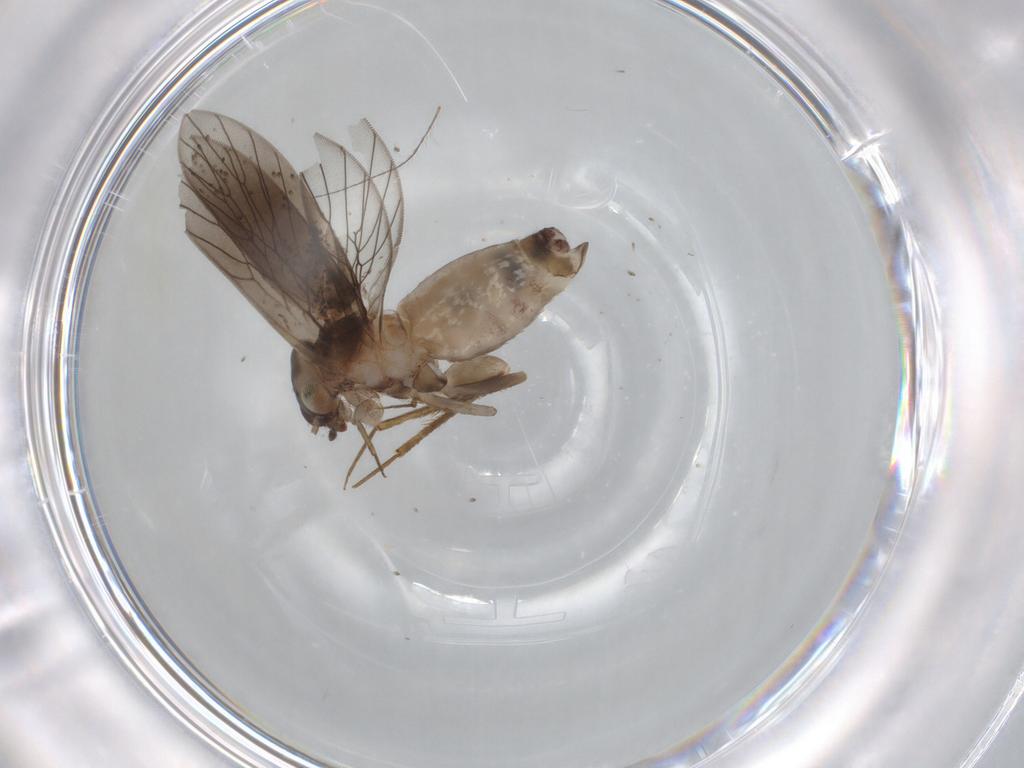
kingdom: Animalia
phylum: Arthropoda
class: Insecta
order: Psocodea
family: Lepidopsocidae
